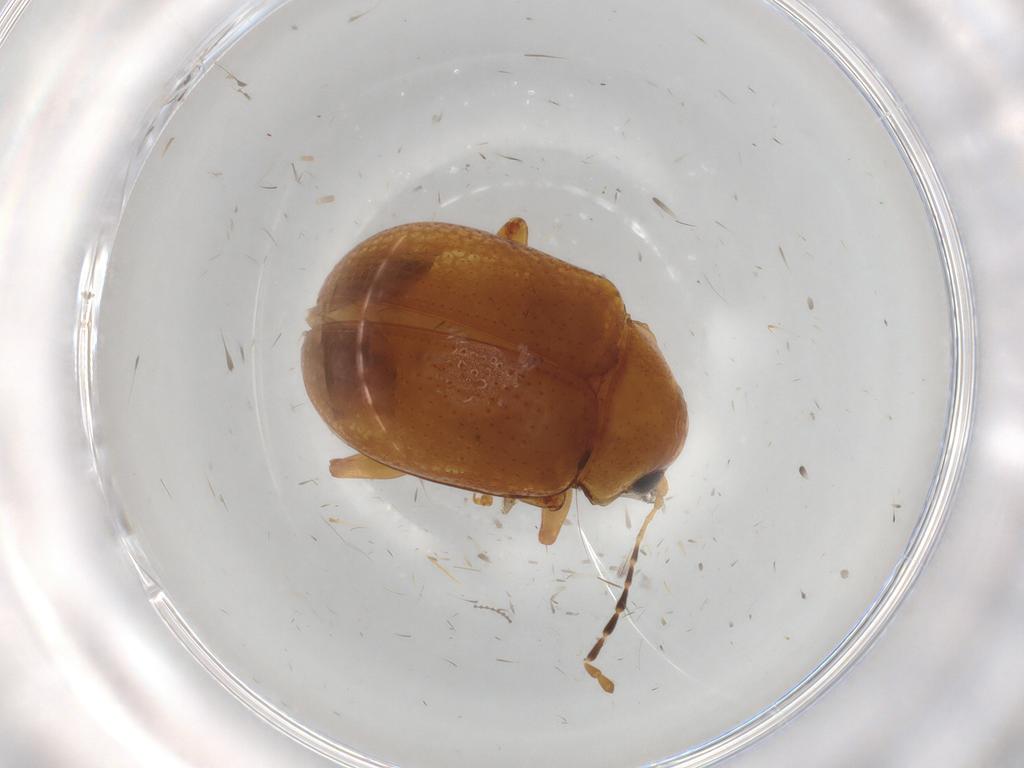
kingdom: Animalia
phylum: Arthropoda
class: Insecta
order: Coleoptera
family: Chrysomelidae
